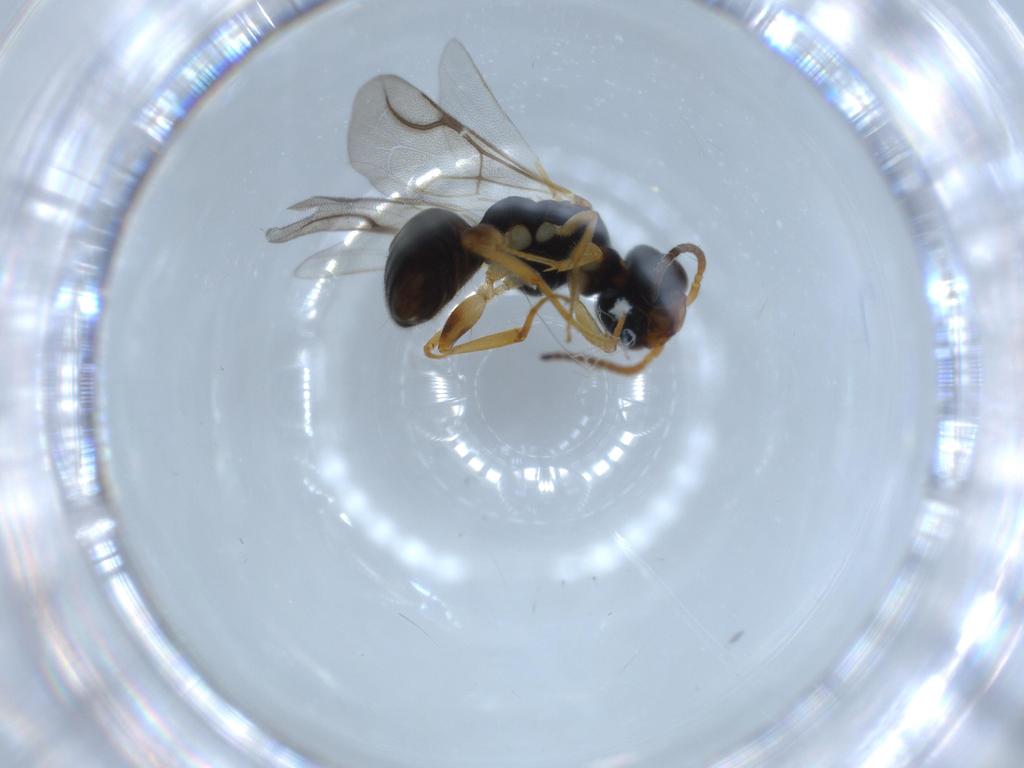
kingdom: Animalia
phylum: Arthropoda
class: Insecta
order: Hymenoptera
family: Bethylidae
